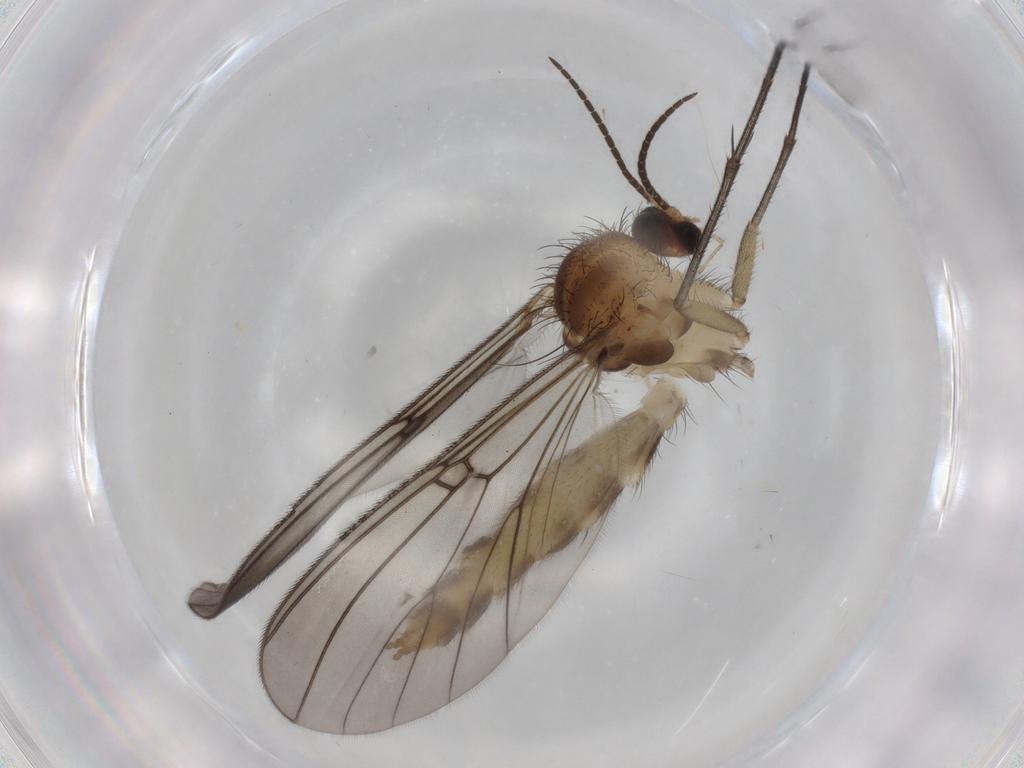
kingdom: Animalia
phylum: Arthropoda
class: Insecta
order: Diptera
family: Mycetophilidae
